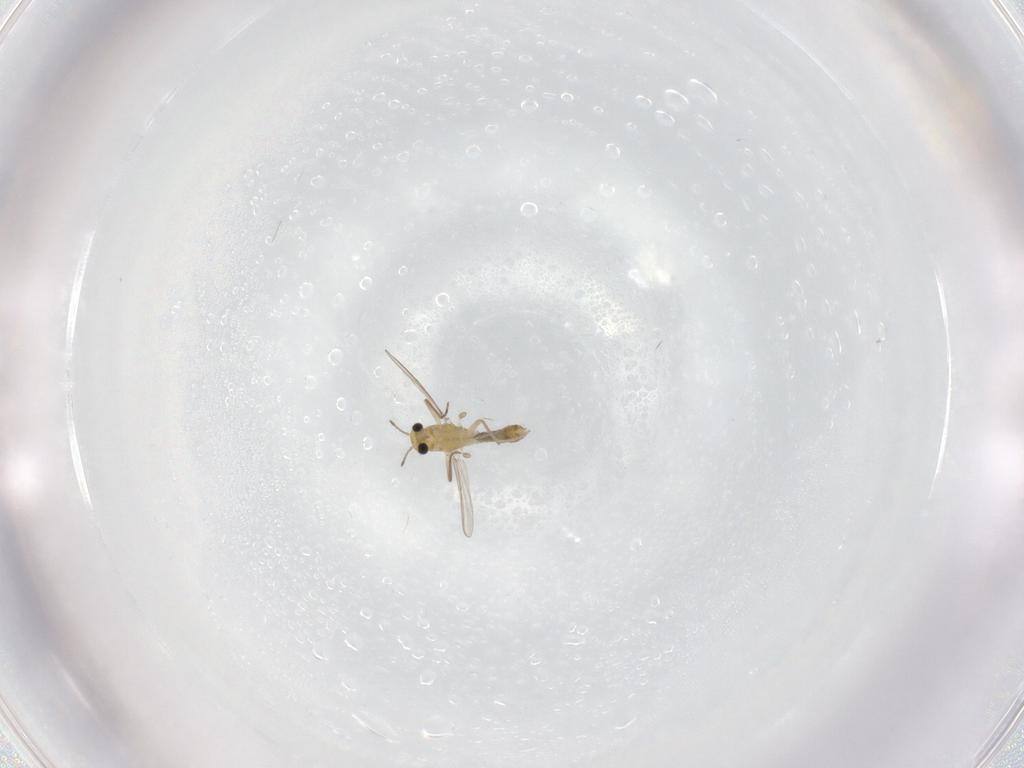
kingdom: Animalia
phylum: Arthropoda
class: Insecta
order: Diptera
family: Chironomidae
